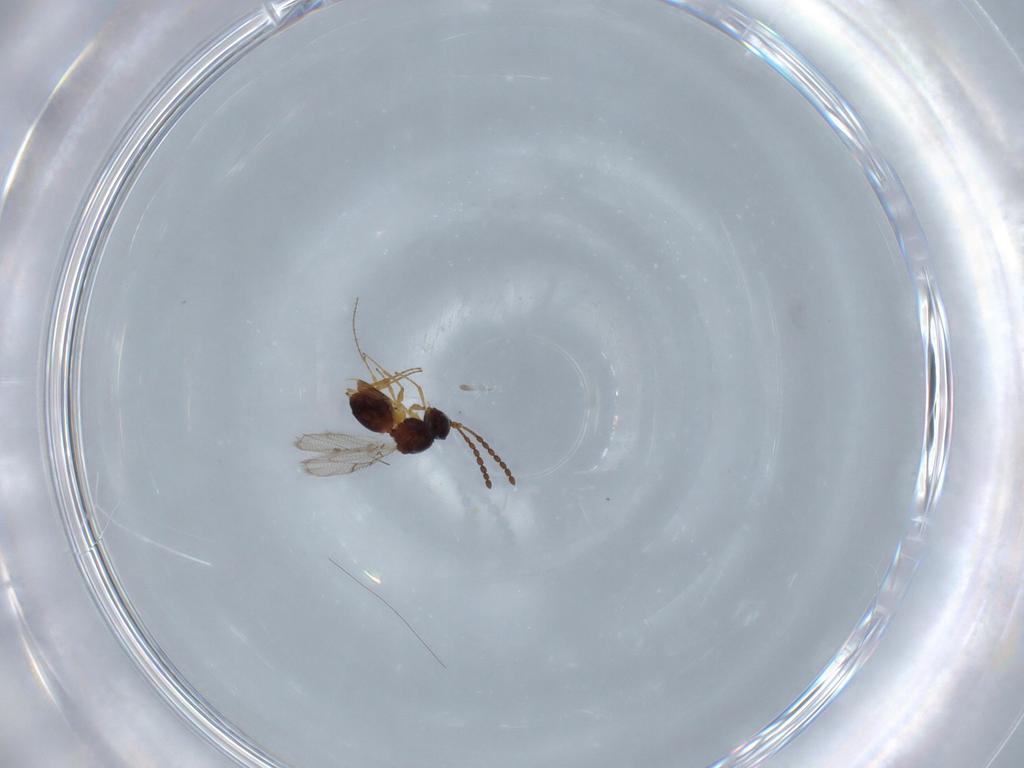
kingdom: Animalia
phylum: Arthropoda
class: Insecta
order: Hymenoptera
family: Figitidae
